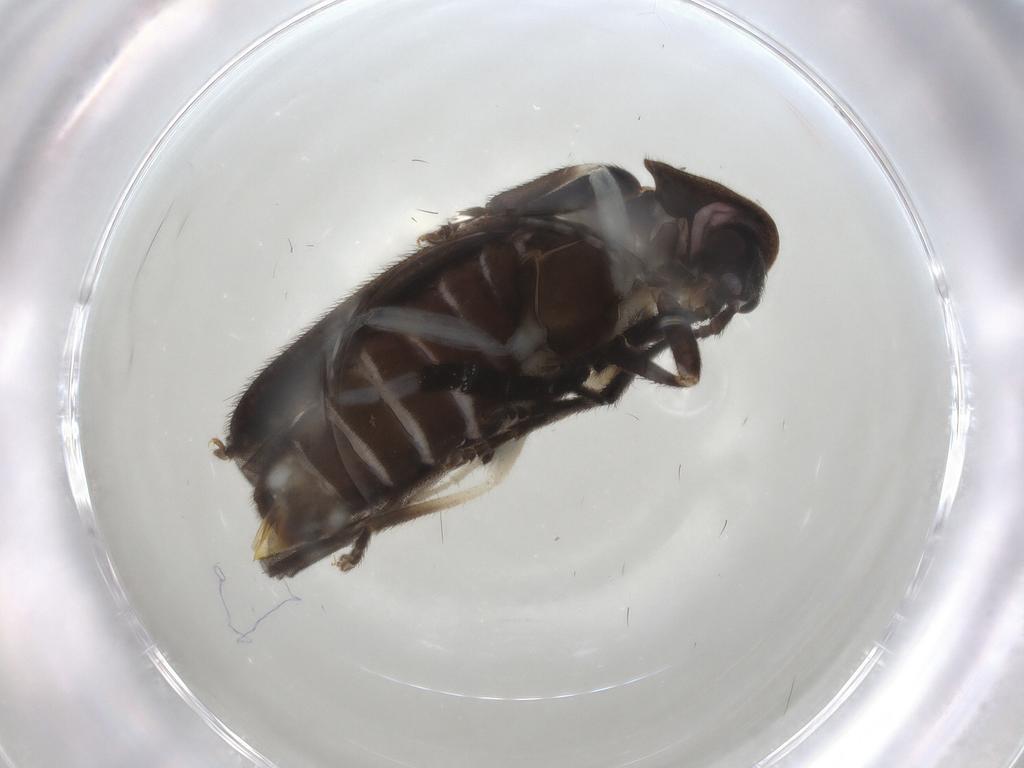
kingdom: Animalia
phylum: Arthropoda
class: Insecta
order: Coleoptera
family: Lampyridae
